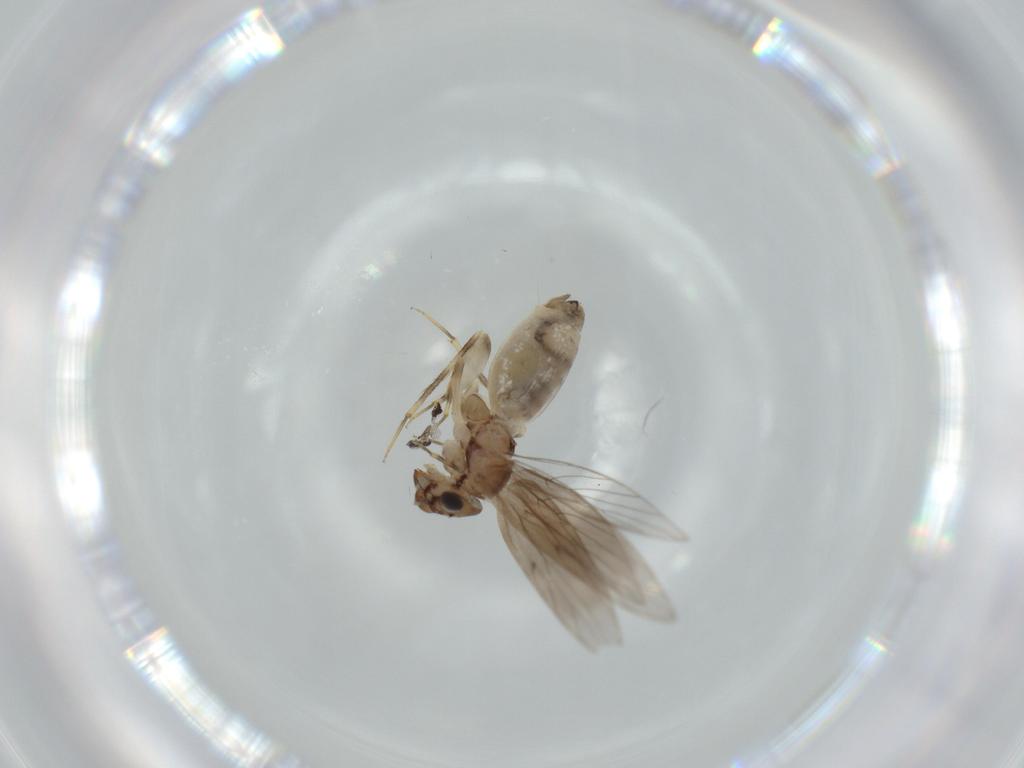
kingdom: Animalia
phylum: Arthropoda
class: Insecta
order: Psocodea
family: Lepidopsocidae
